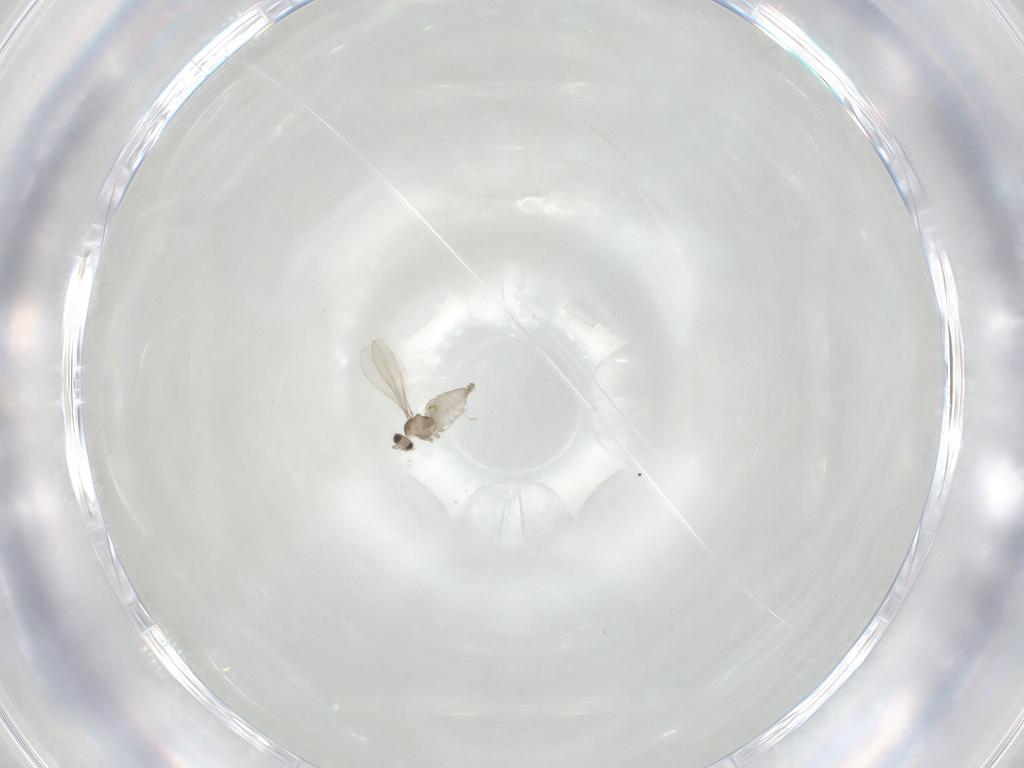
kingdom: Animalia
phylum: Arthropoda
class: Insecta
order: Diptera
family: Cecidomyiidae
